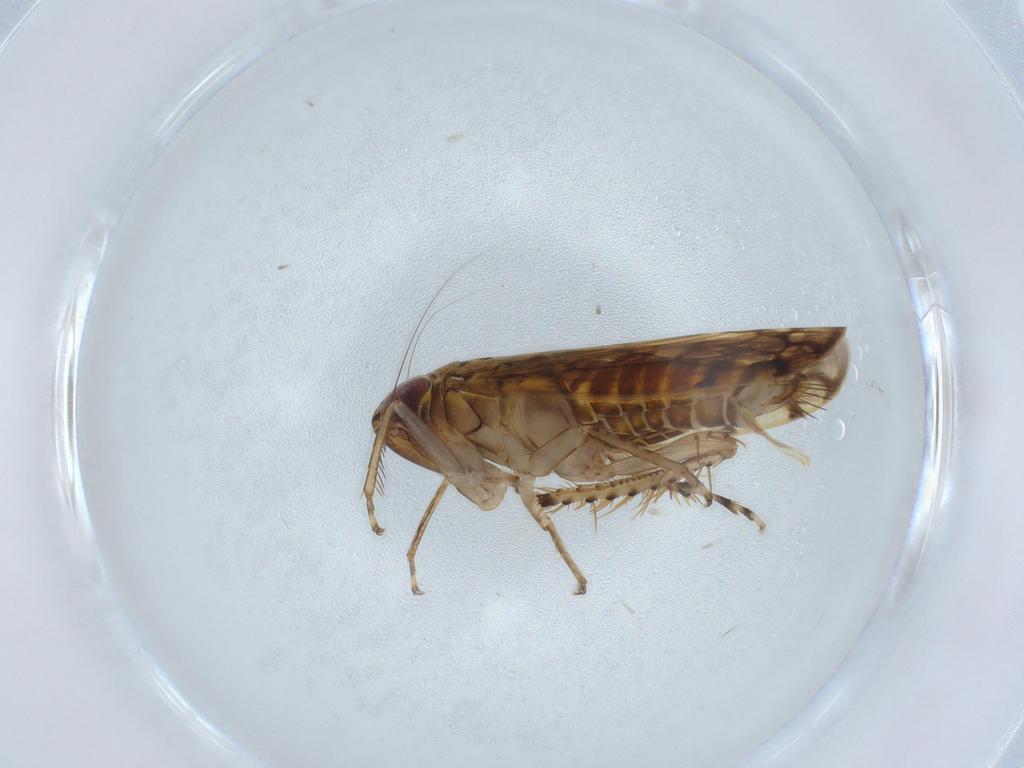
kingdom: Animalia
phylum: Arthropoda
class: Insecta
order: Hemiptera
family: Cicadellidae
